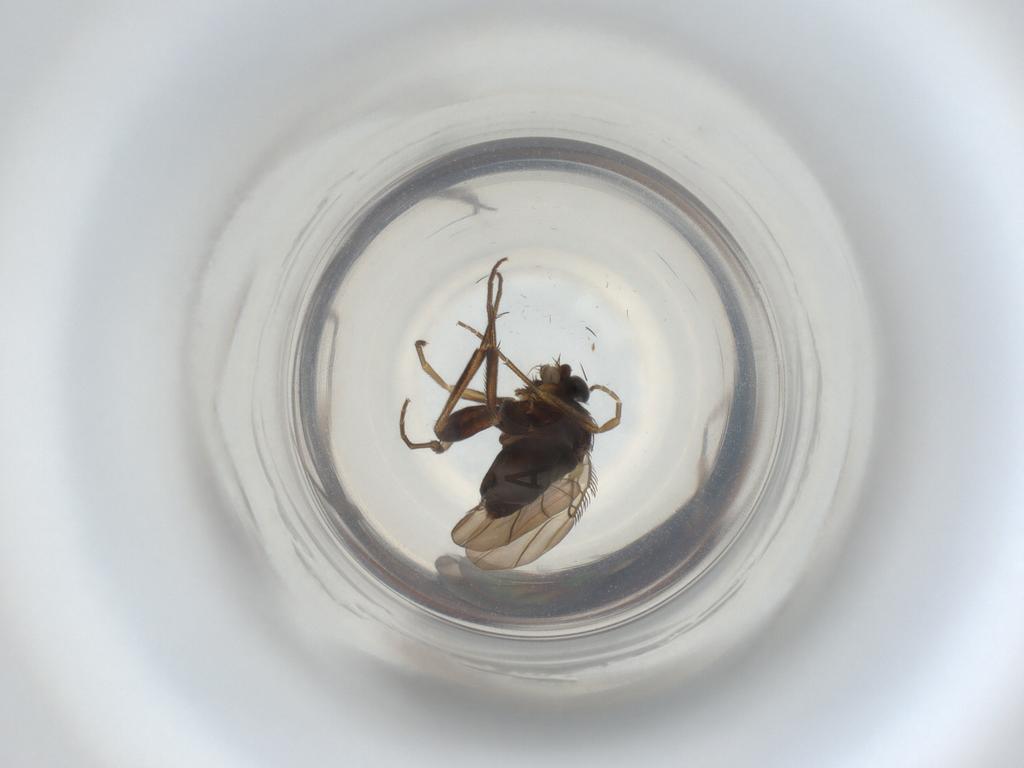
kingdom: Animalia
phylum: Arthropoda
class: Insecta
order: Diptera
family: Phoridae
